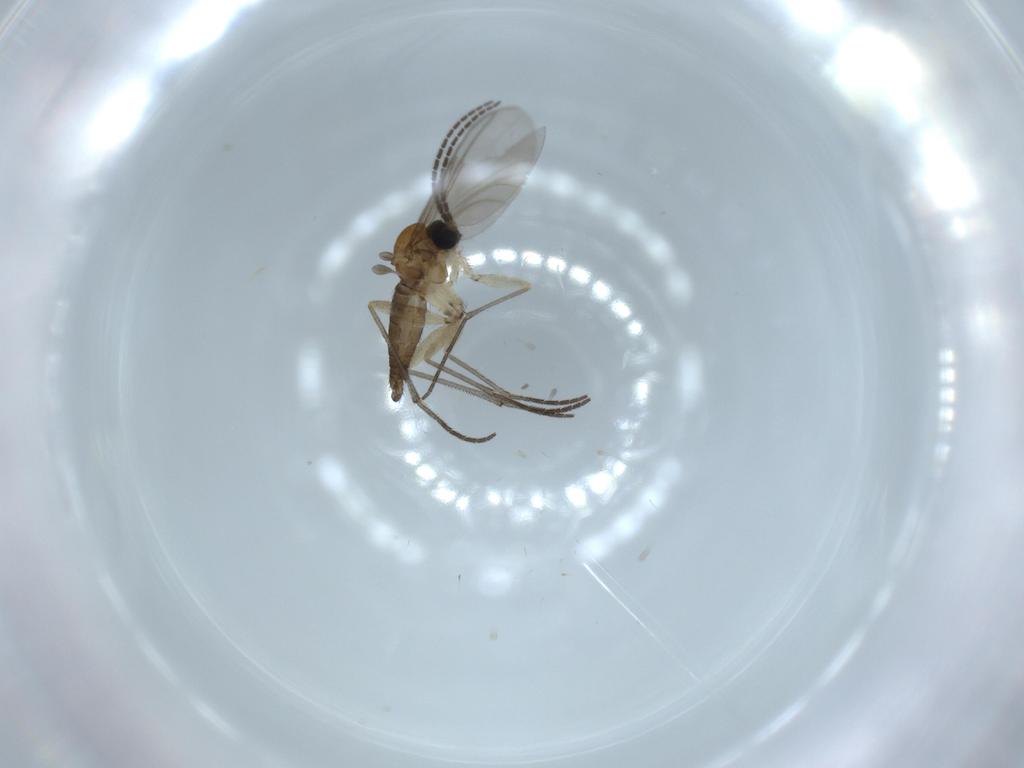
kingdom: Animalia
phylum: Arthropoda
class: Insecta
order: Diptera
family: Sciaridae
